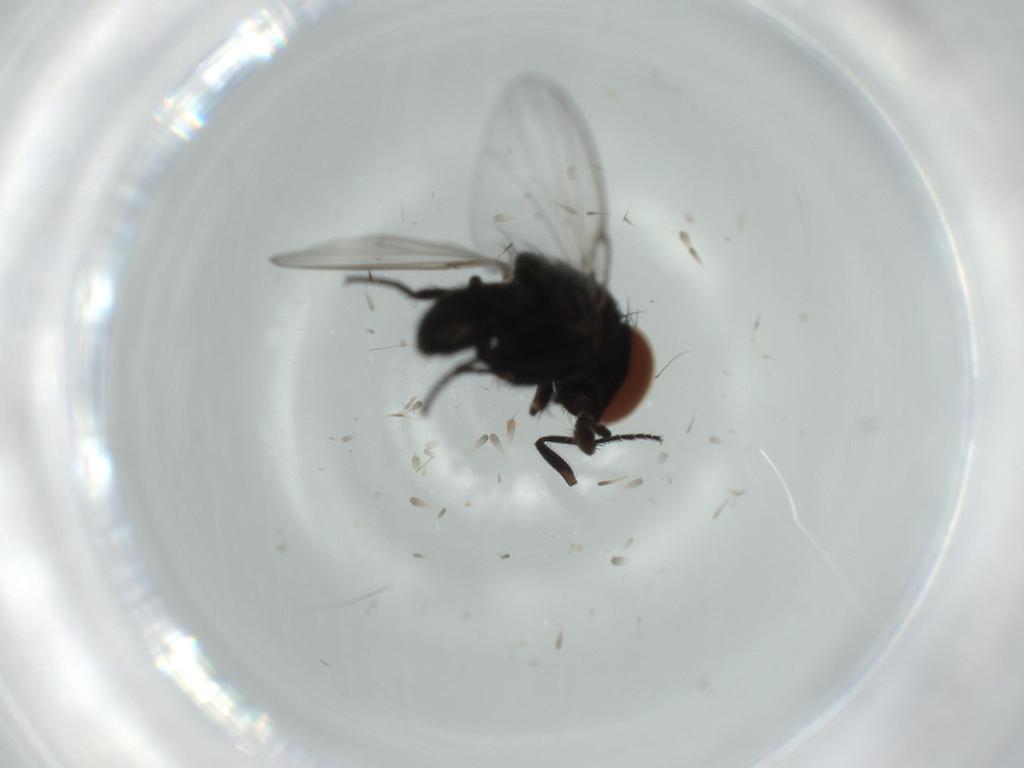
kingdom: Animalia
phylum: Arthropoda
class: Insecta
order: Diptera
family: Milichiidae
